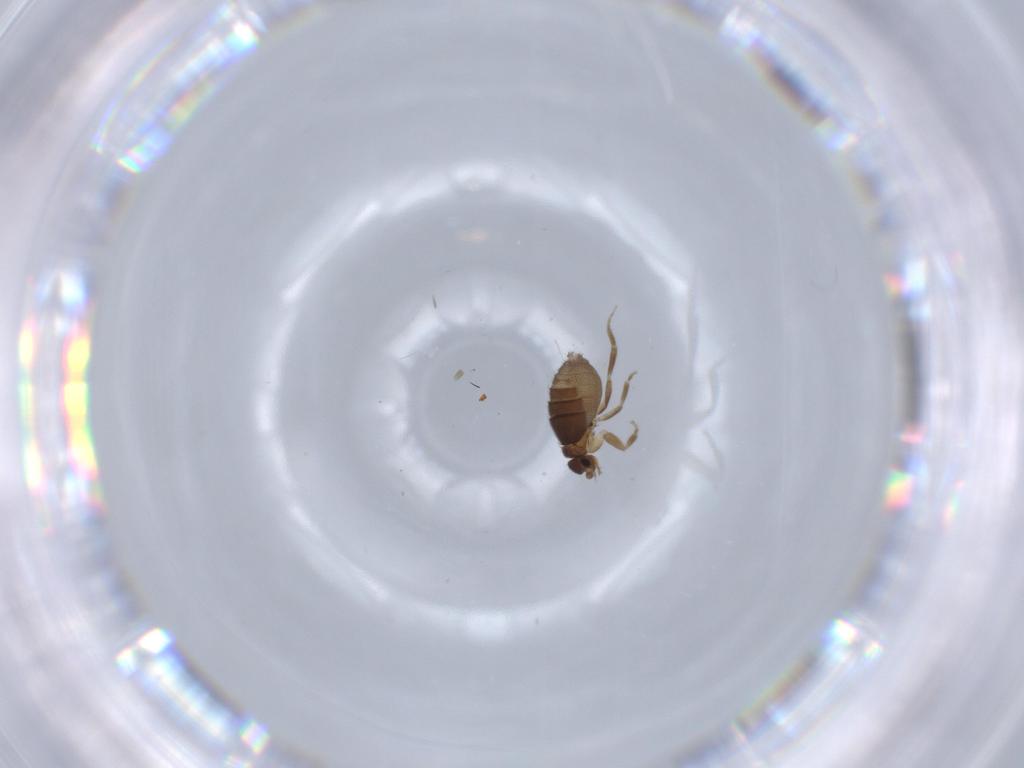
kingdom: Animalia
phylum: Arthropoda
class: Insecta
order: Diptera
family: Phoridae
